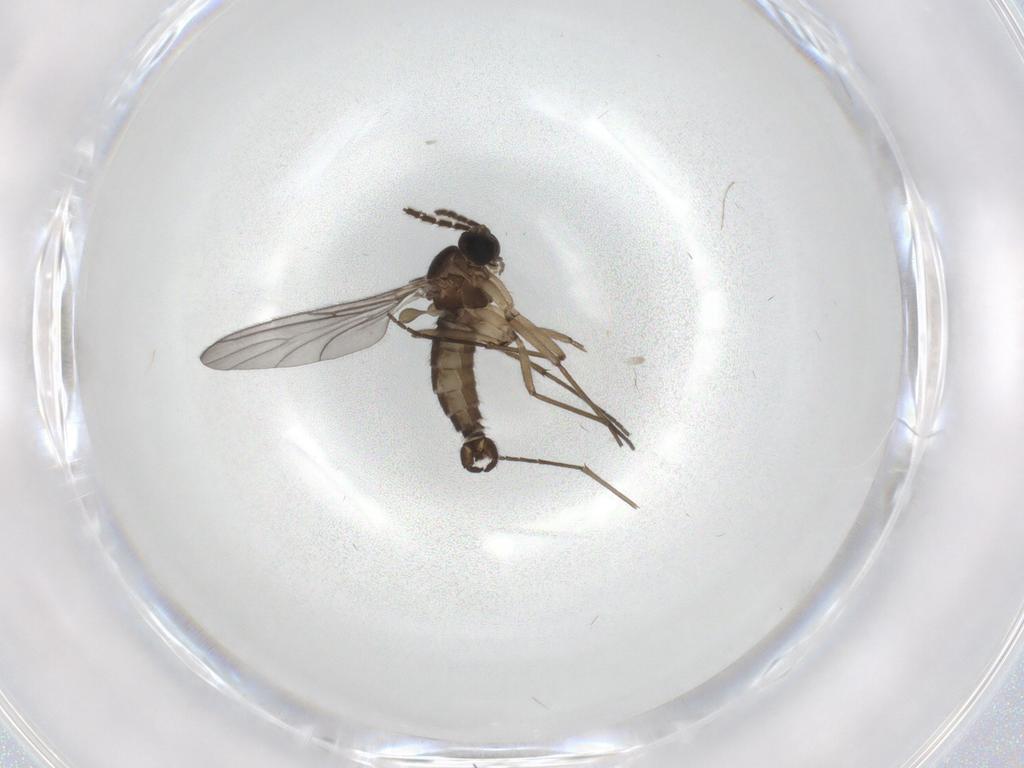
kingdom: Animalia
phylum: Arthropoda
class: Insecta
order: Diptera
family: Sciaridae
